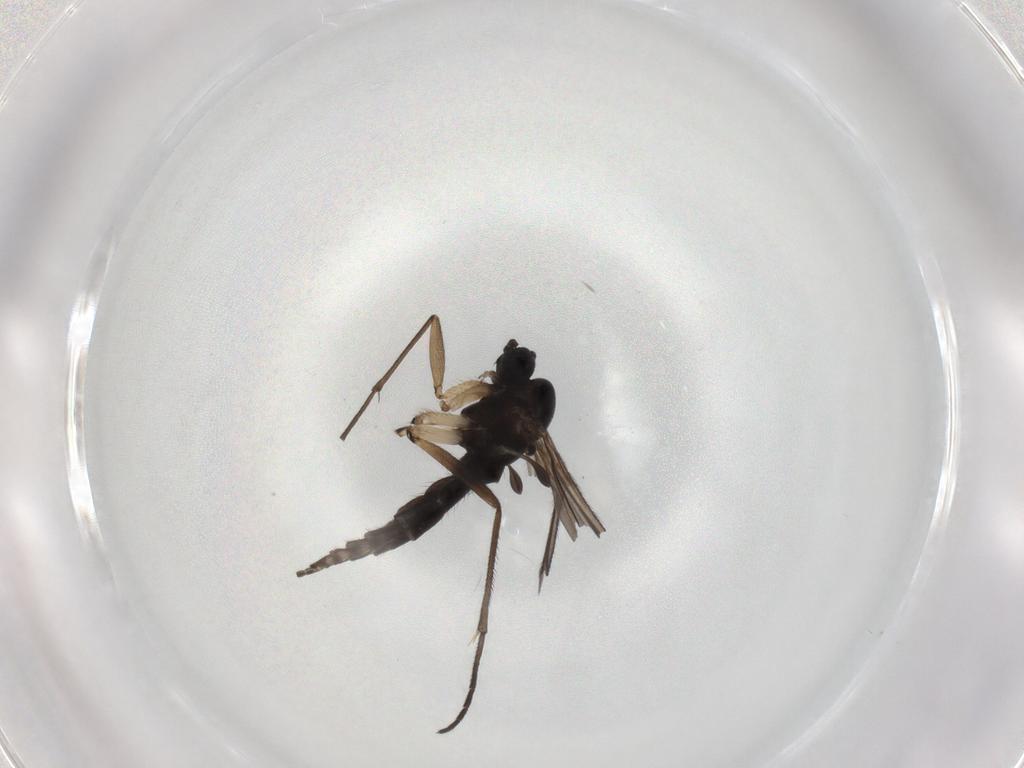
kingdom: Animalia
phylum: Arthropoda
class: Insecta
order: Diptera
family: Sciaridae
